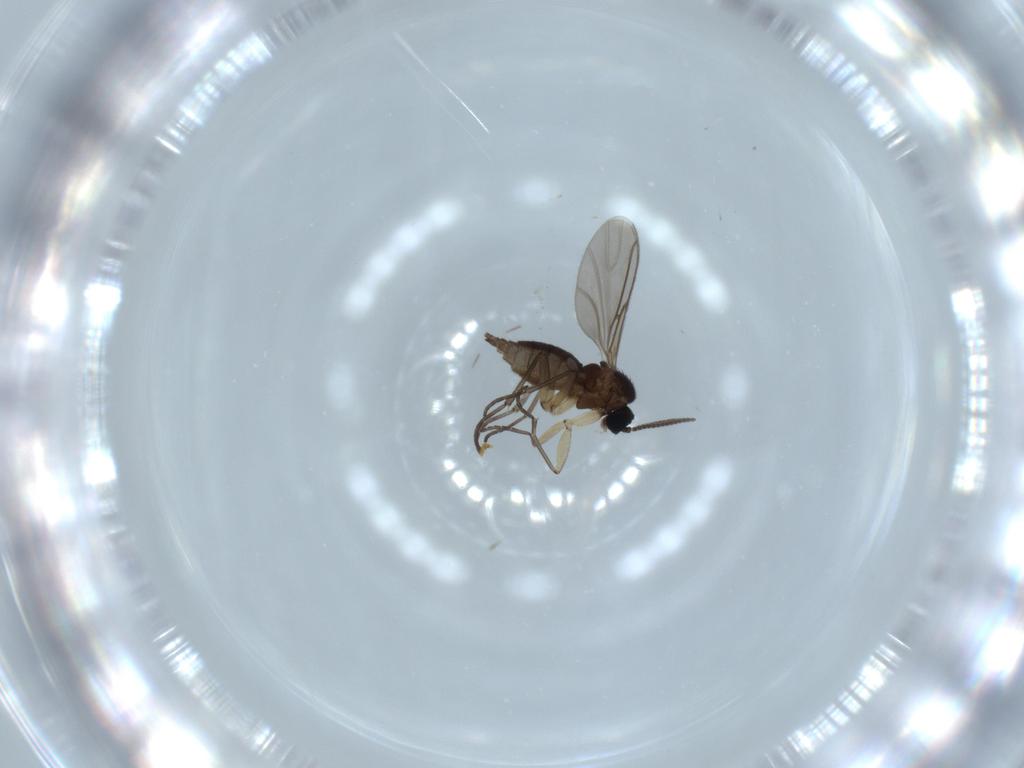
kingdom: Animalia
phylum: Arthropoda
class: Insecta
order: Diptera
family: Sciaridae
